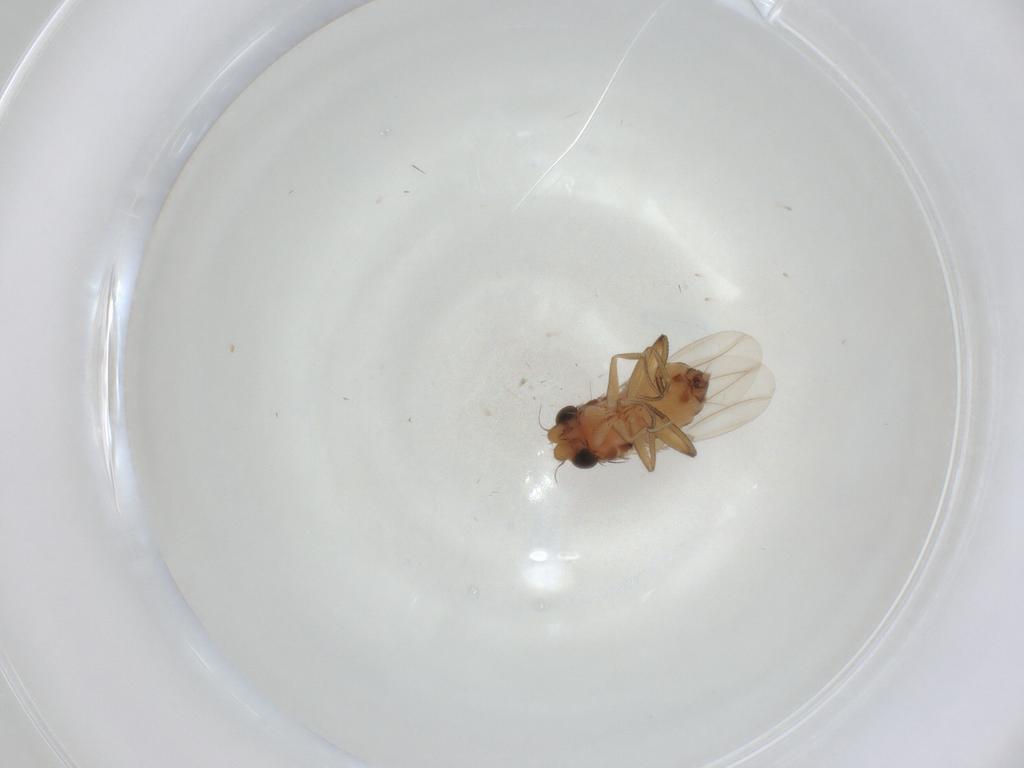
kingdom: Animalia
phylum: Arthropoda
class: Insecta
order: Diptera
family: Phoridae
